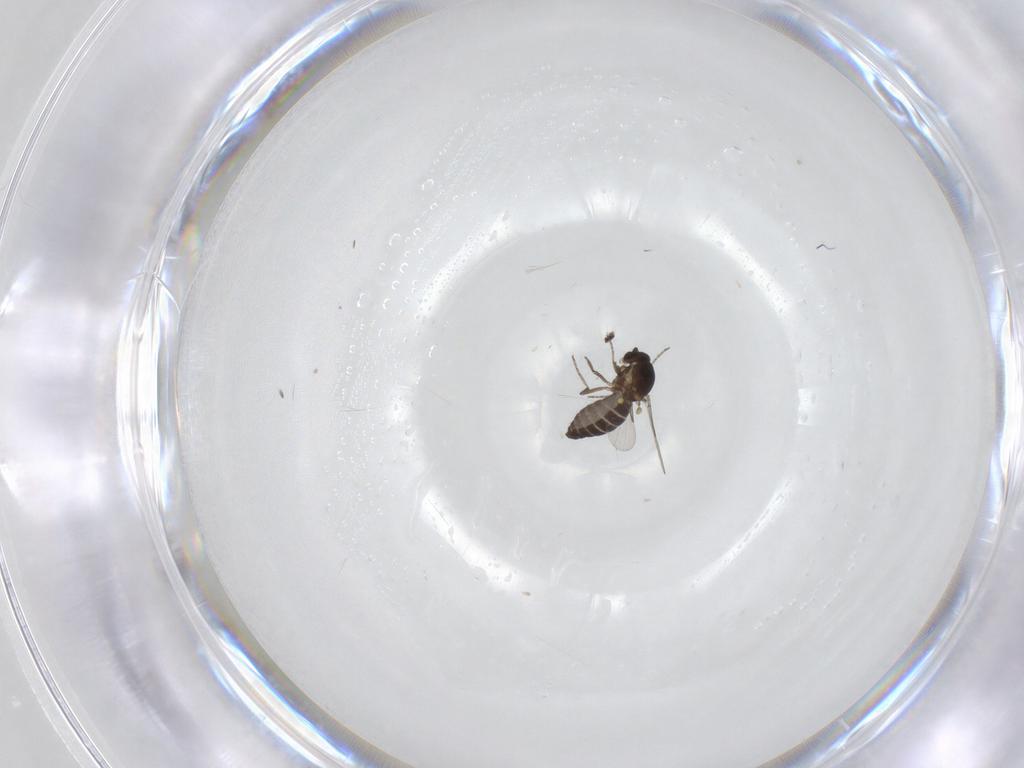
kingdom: Animalia
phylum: Arthropoda
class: Insecta
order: Diptera
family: Ceratopogonidae
